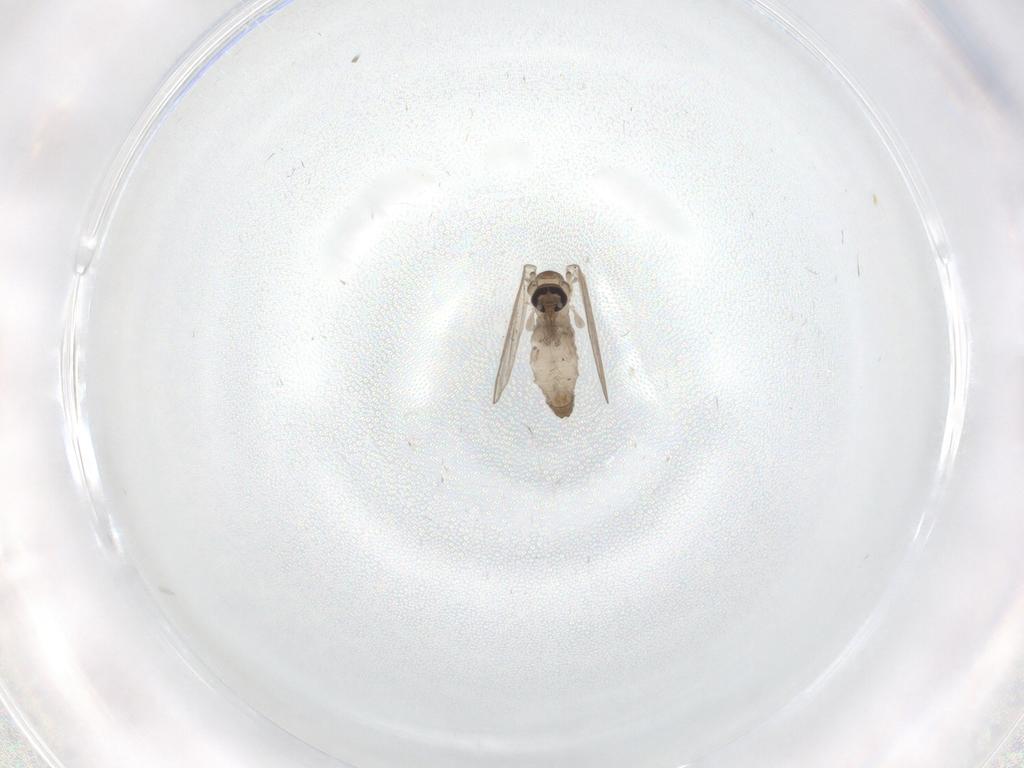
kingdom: Animalia
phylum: Arthropoda
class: Insecta
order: Diptera
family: Psychodidae
